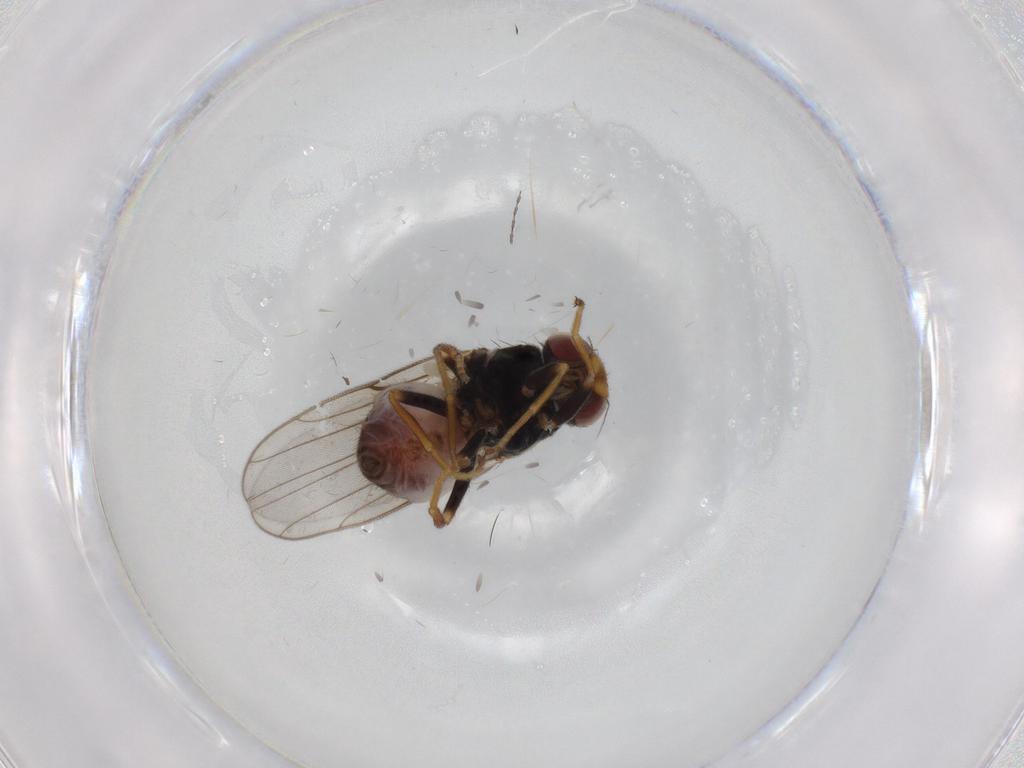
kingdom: Animalia
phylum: Arthropoda
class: Insecta
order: Diptera
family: Chloropidae
